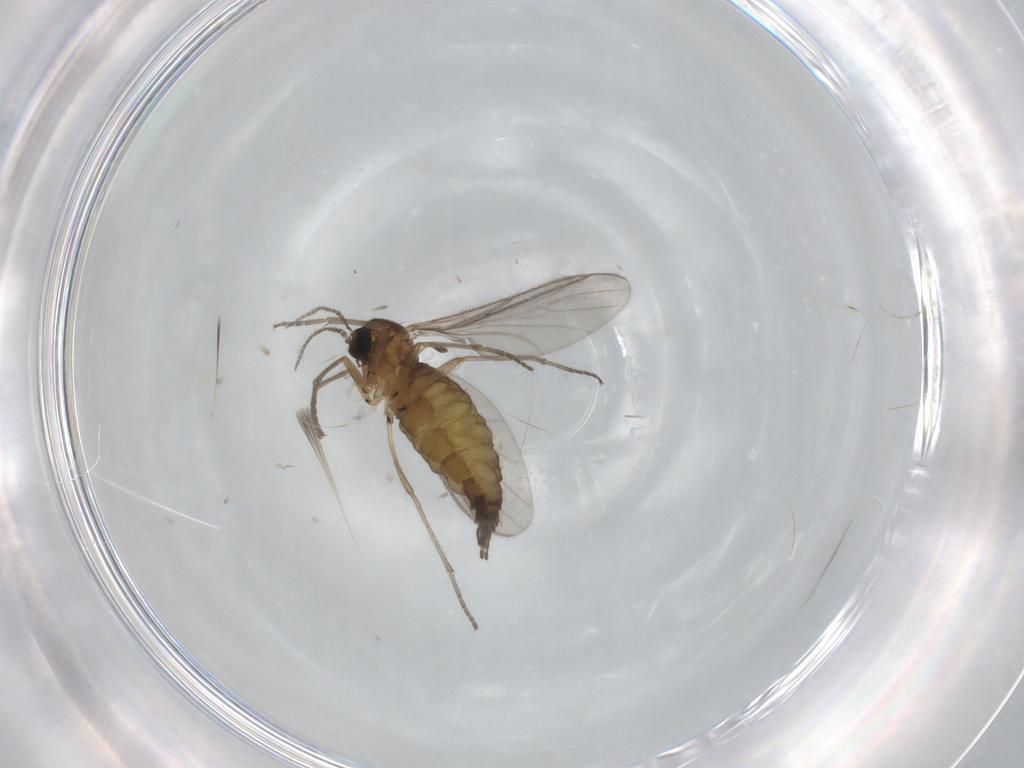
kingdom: Animalia
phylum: Arthropoda
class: Insecta
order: Diptera
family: Sciaridae
